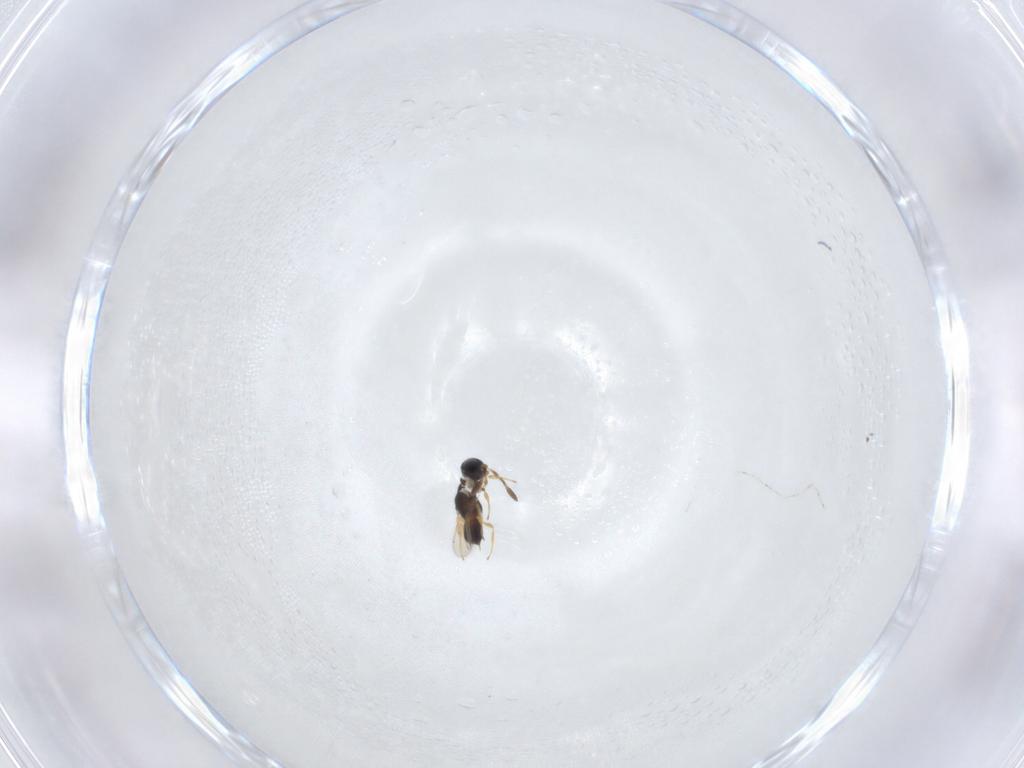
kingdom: Animalia
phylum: Arthropoda
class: Insecta
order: Hymenoptera
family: Scelionidae
